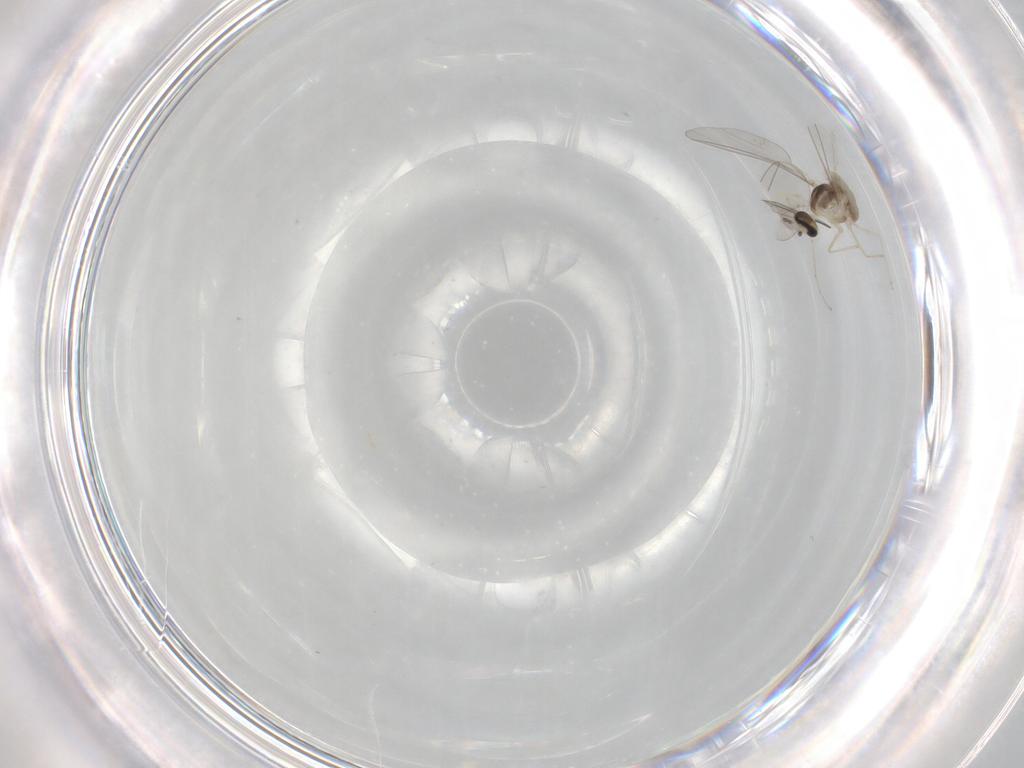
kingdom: Animalia
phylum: Arthropoda
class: Insecta
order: Diptera
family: Cecidomyiidae
